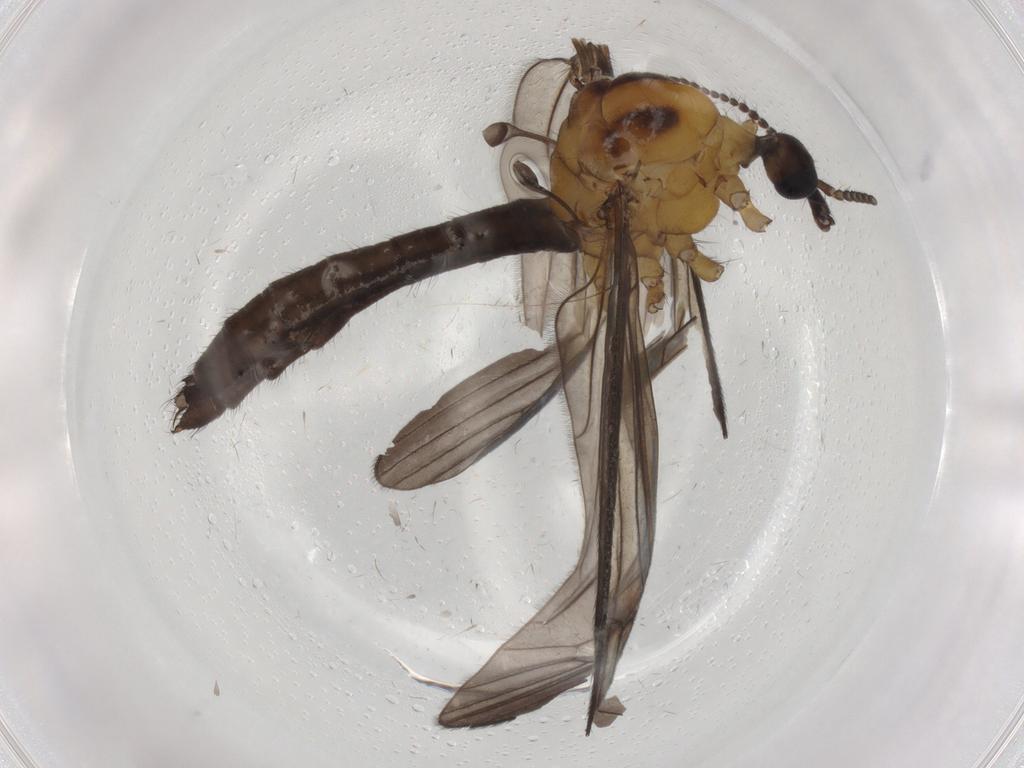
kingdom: Animalia
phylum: Arthropoda
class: Insecta
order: Diptera
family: Limoniidae
